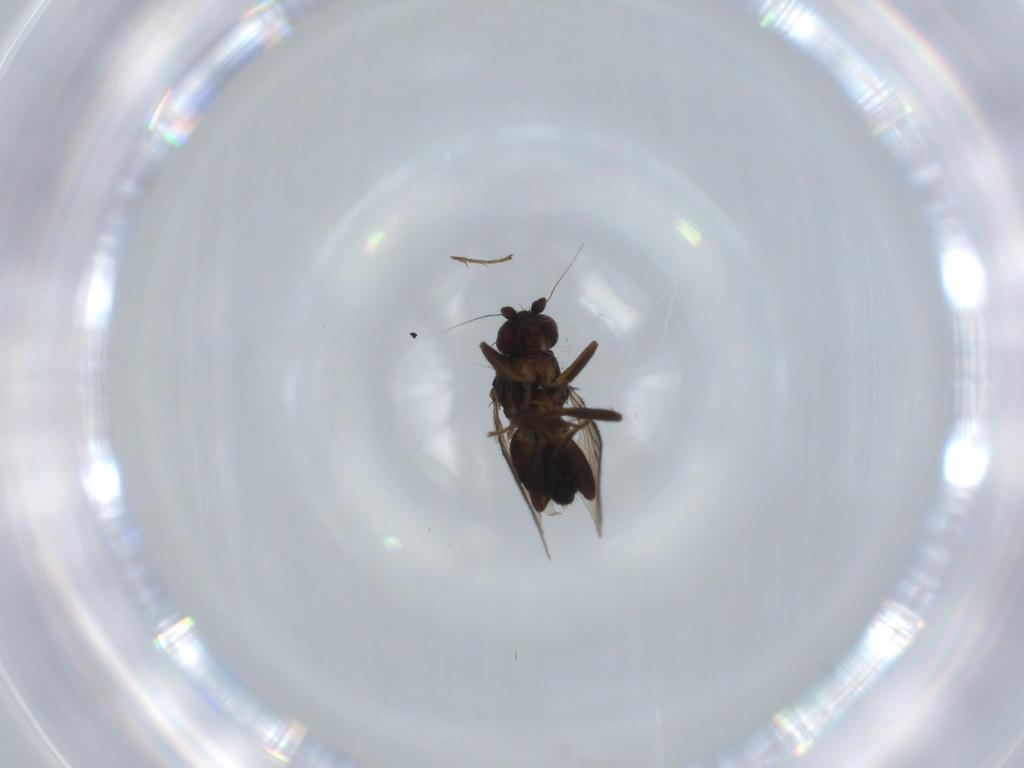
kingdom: Animalia
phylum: Arthropoda
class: Insecta
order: Diptera
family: Sphaeroceridae
